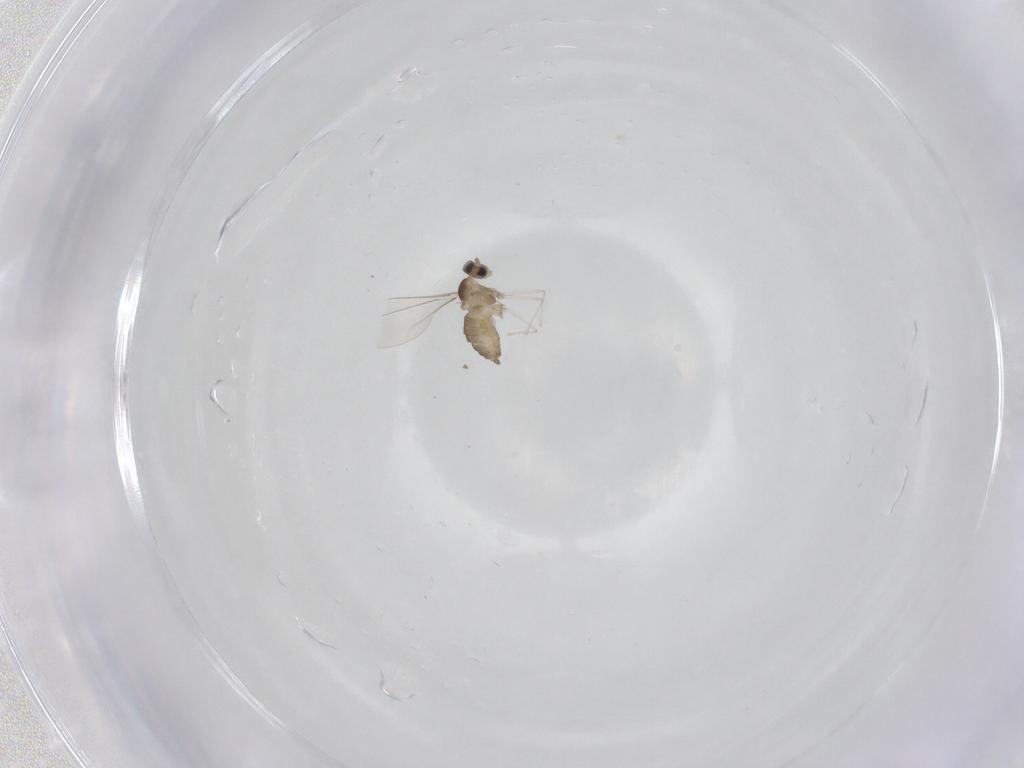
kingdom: Animalia
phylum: Arthropoda
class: Insecta
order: Diptera
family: Cecidomyiidae
